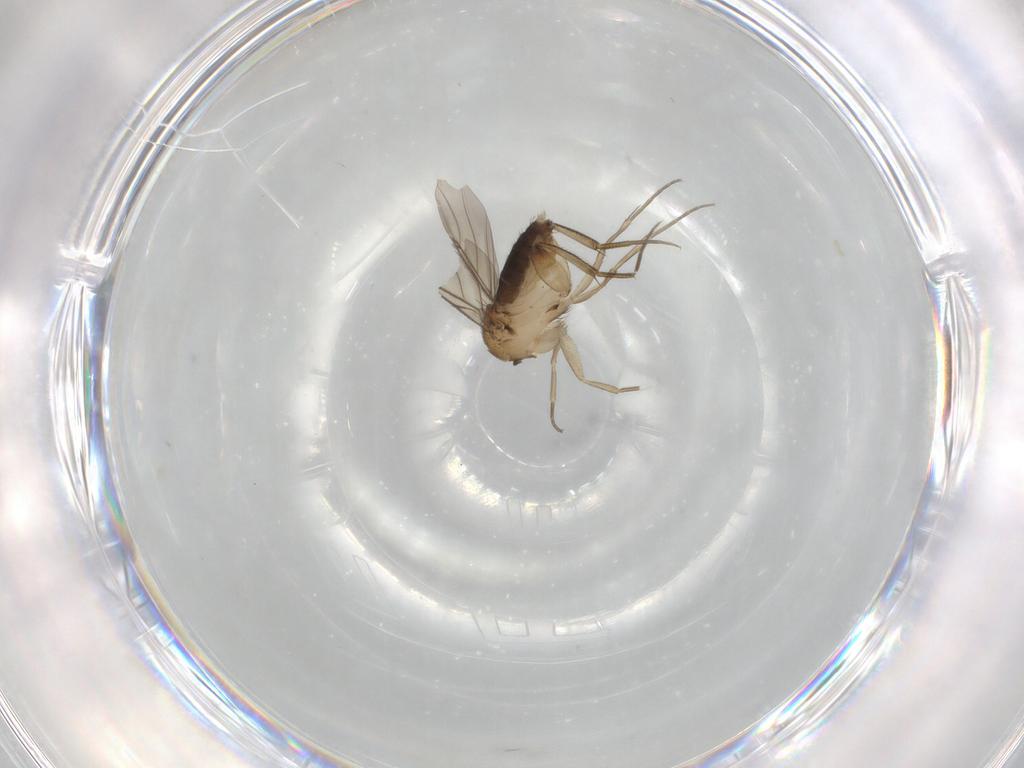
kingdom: Animalia
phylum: Arthropoda
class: Insecta
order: Diptera
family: Phoridae
